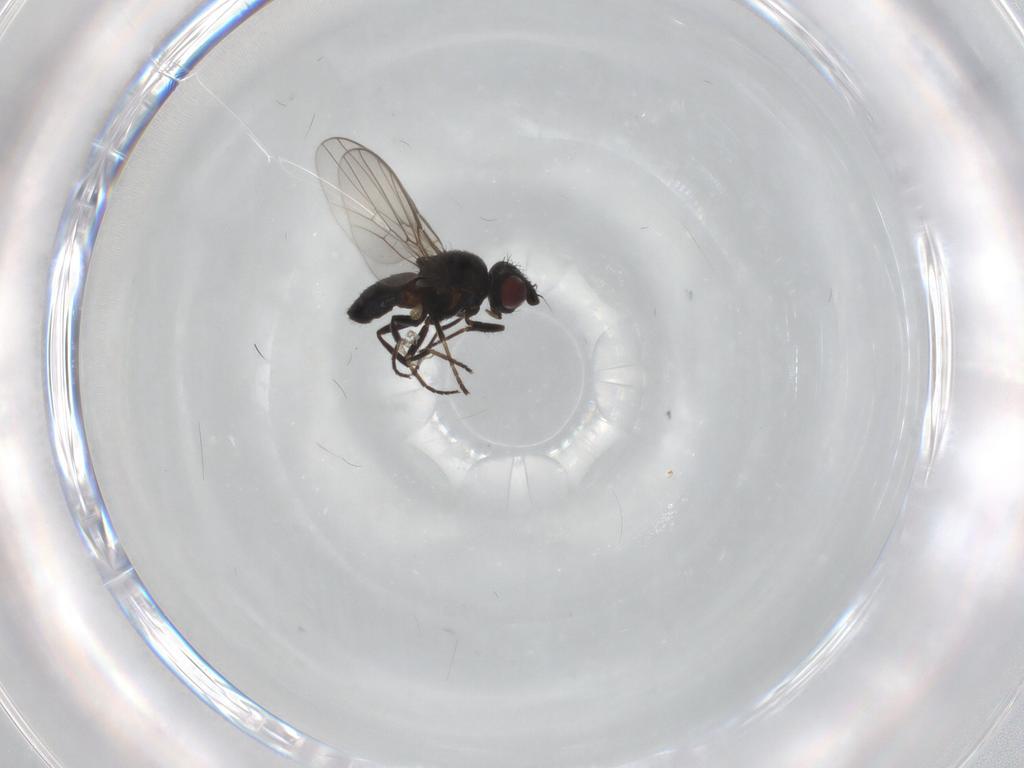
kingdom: Animalia
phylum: Arthropoda
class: Insecta
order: Diptera
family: Chloropidae
